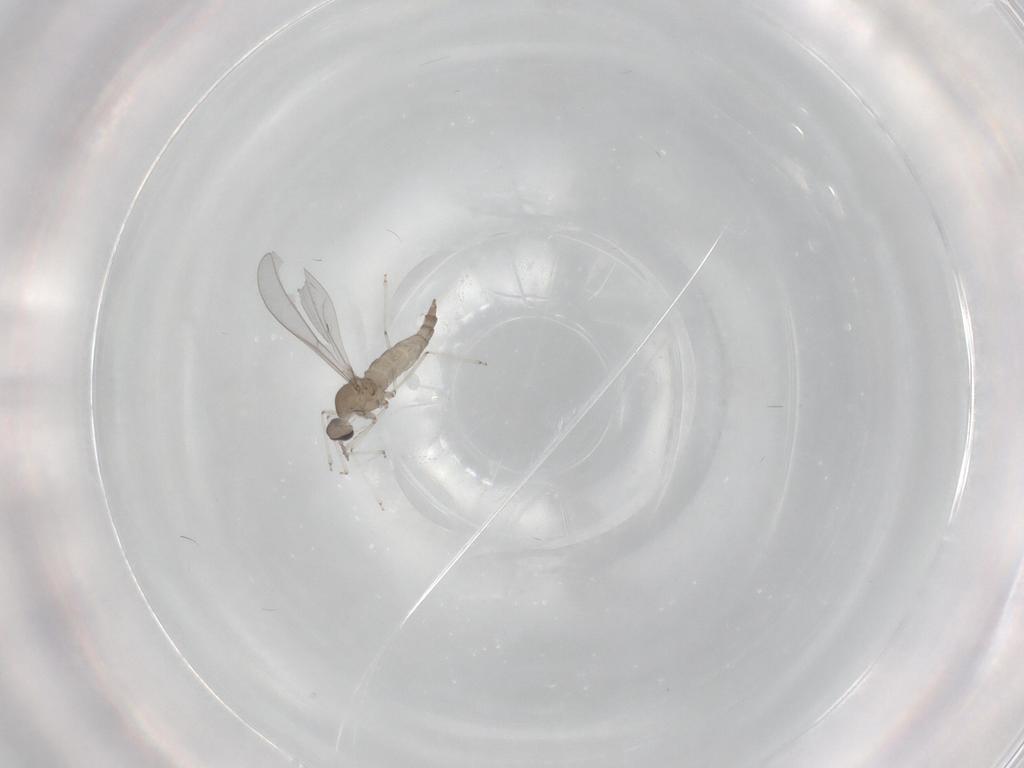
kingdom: Animalia
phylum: Arthropoda
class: Insecta
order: Diptera
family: Cecidomyiidae
